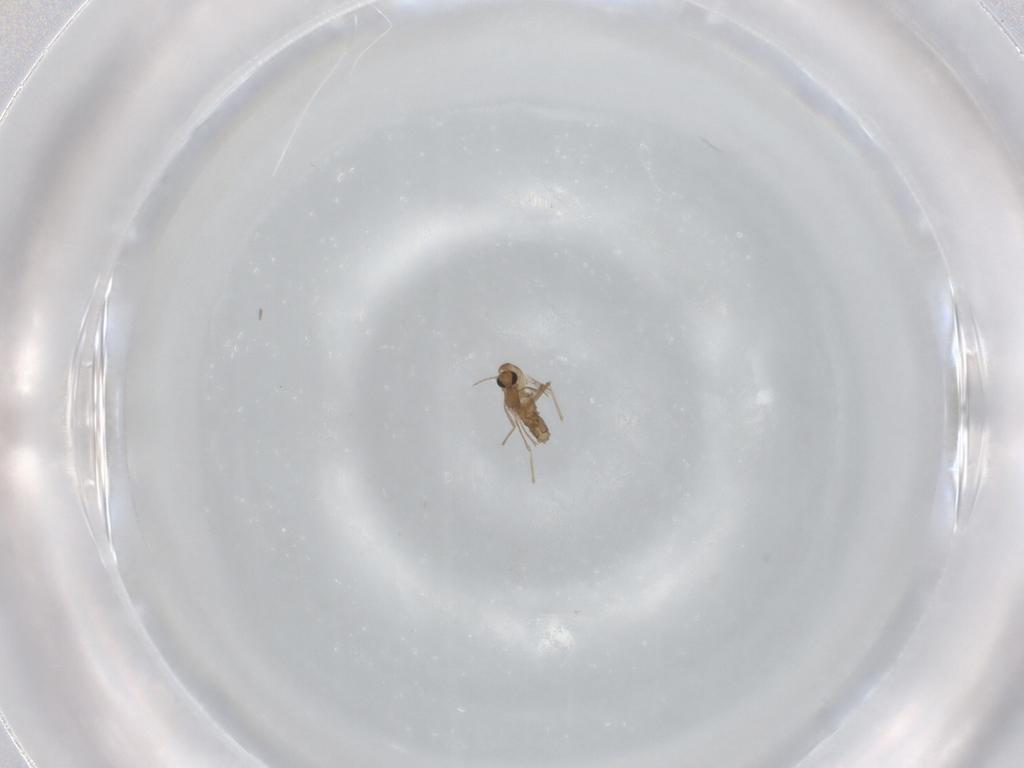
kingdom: Animalia
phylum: Arthropoda
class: Insecta
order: Diptera
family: Chironomidae
